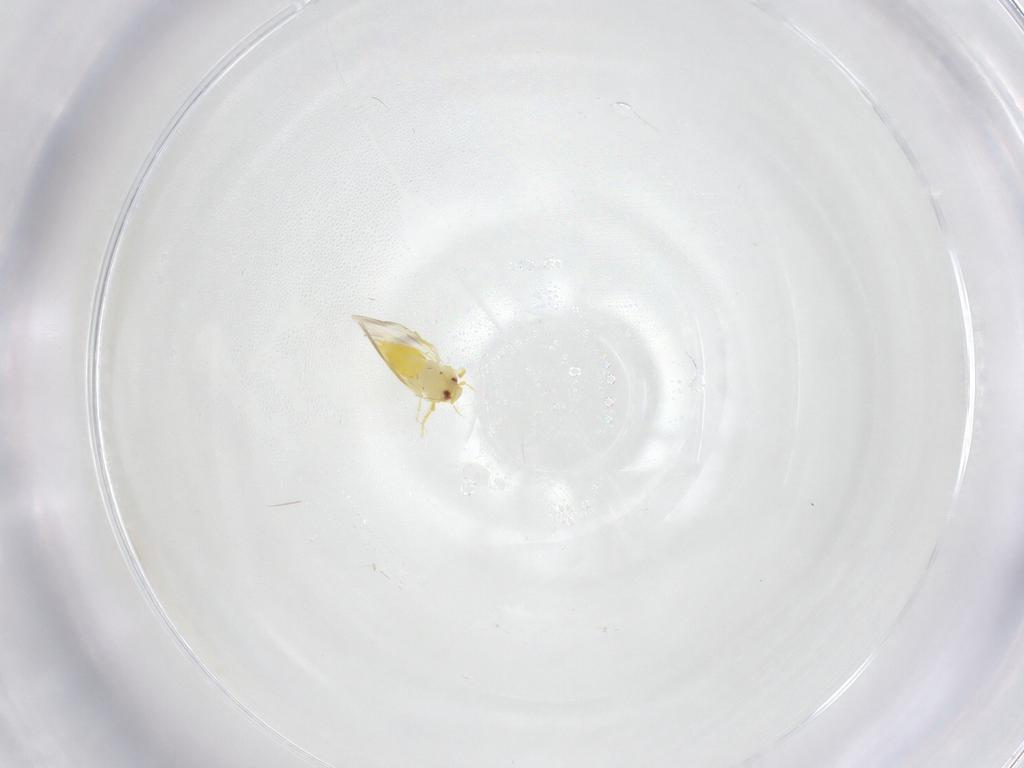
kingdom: Animalia
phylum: Arthropoda
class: Insecta
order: Hemiptera
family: Aleyrodidae
